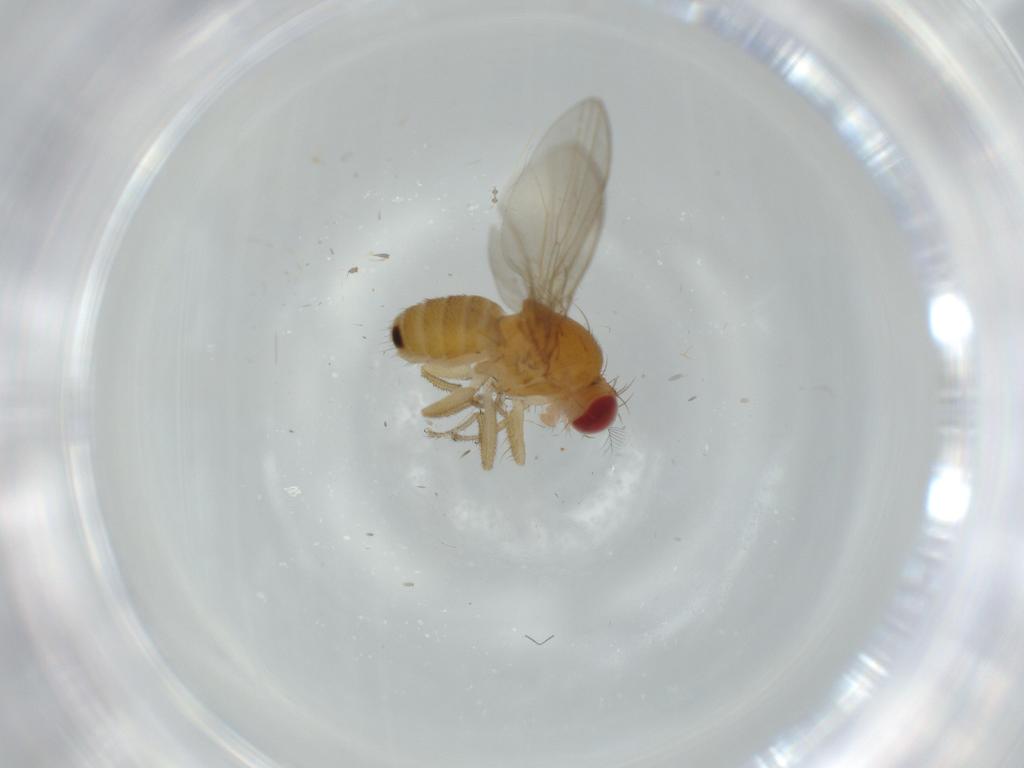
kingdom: Animalia
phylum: Arthropoda
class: Insecta
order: Diptera
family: Drosophilidae
